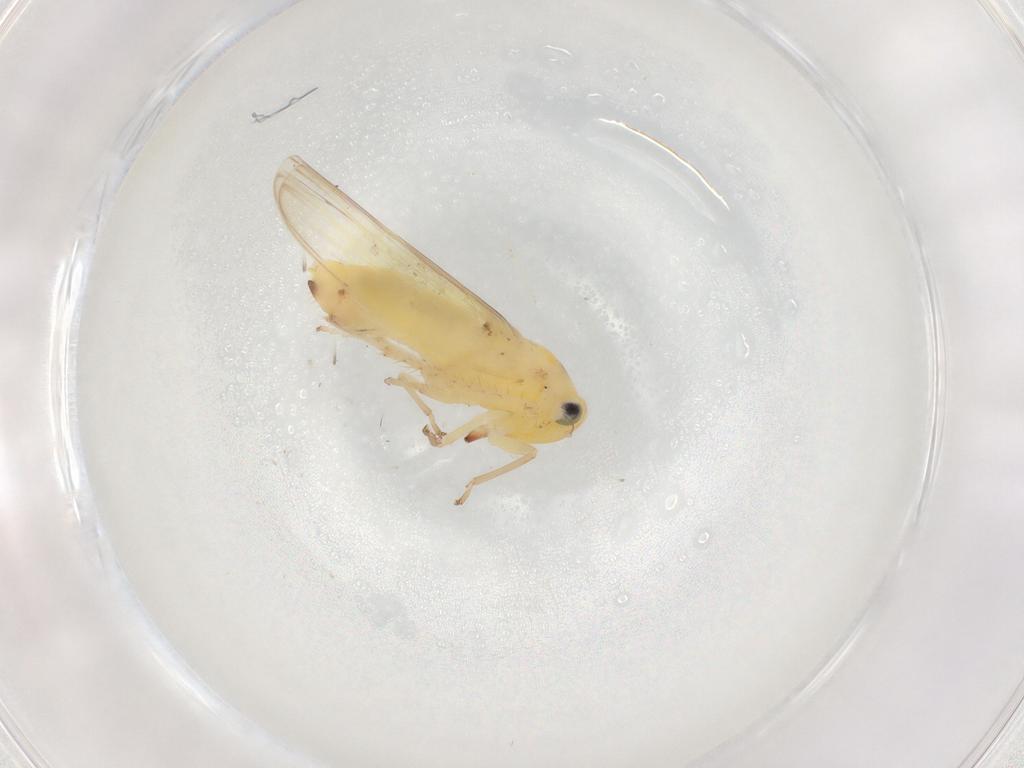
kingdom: Animalia
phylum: Arthropoda
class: Insecta
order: Hemiptera
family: Cicadellidae
